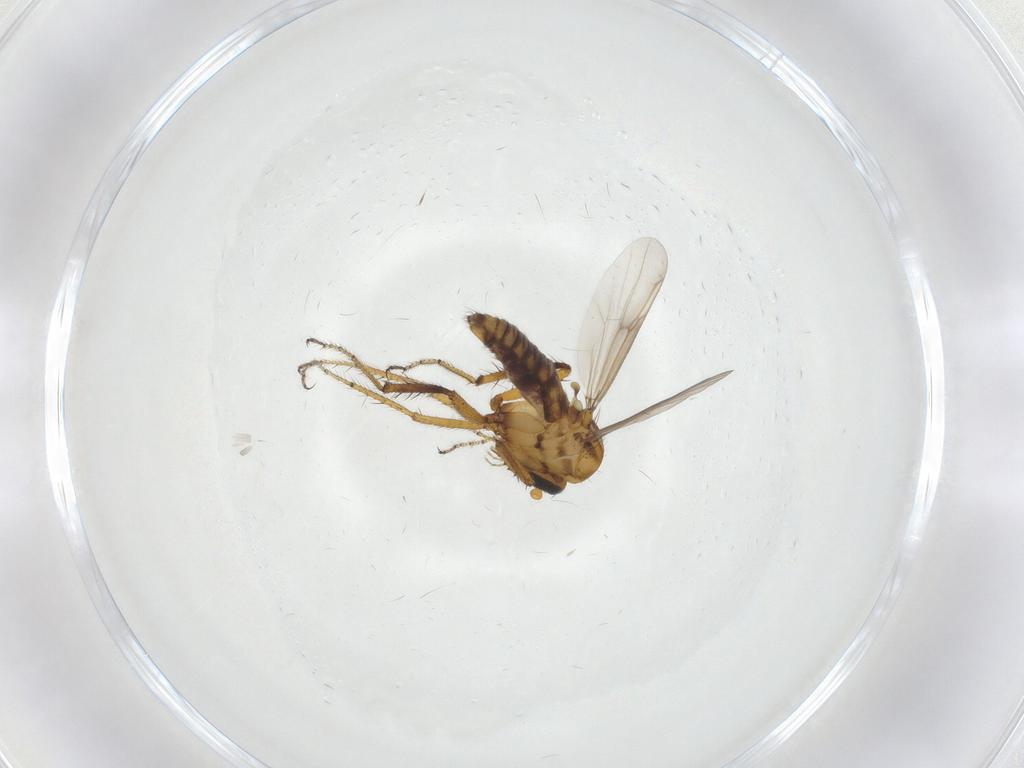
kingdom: Animalia
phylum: Arthropoda
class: Insecta
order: Diptera
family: Ceratopogonidae
